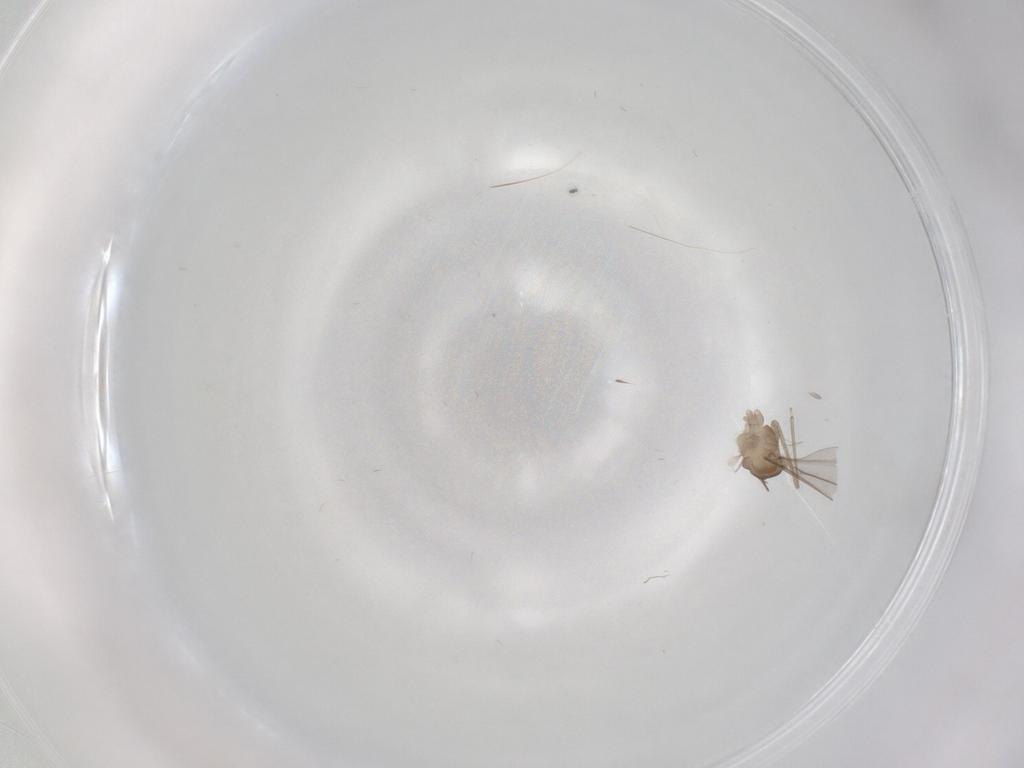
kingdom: Animalia
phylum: Arthropoda
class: Insecta
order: Diptera
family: Cecidomyiidae
